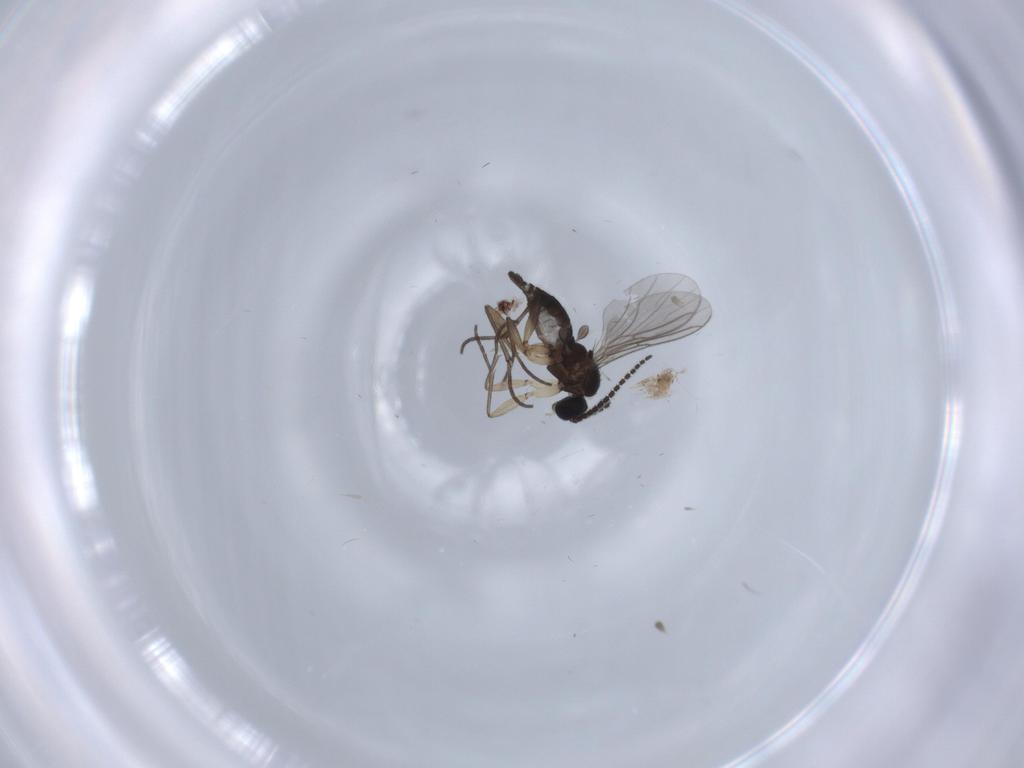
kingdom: Animalia
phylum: Arthropoda
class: Insecta
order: Diptera
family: Sciaridae
